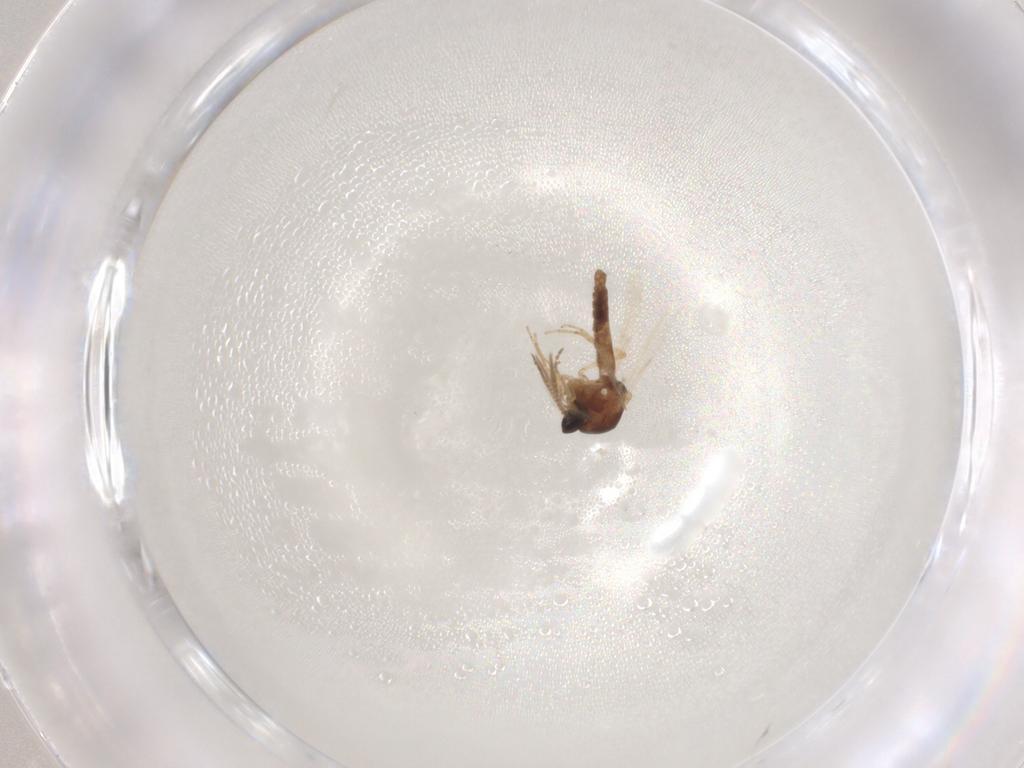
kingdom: Animalia
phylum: Arthropoda
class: Insecta
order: Diptera
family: Ceratopogonidae
